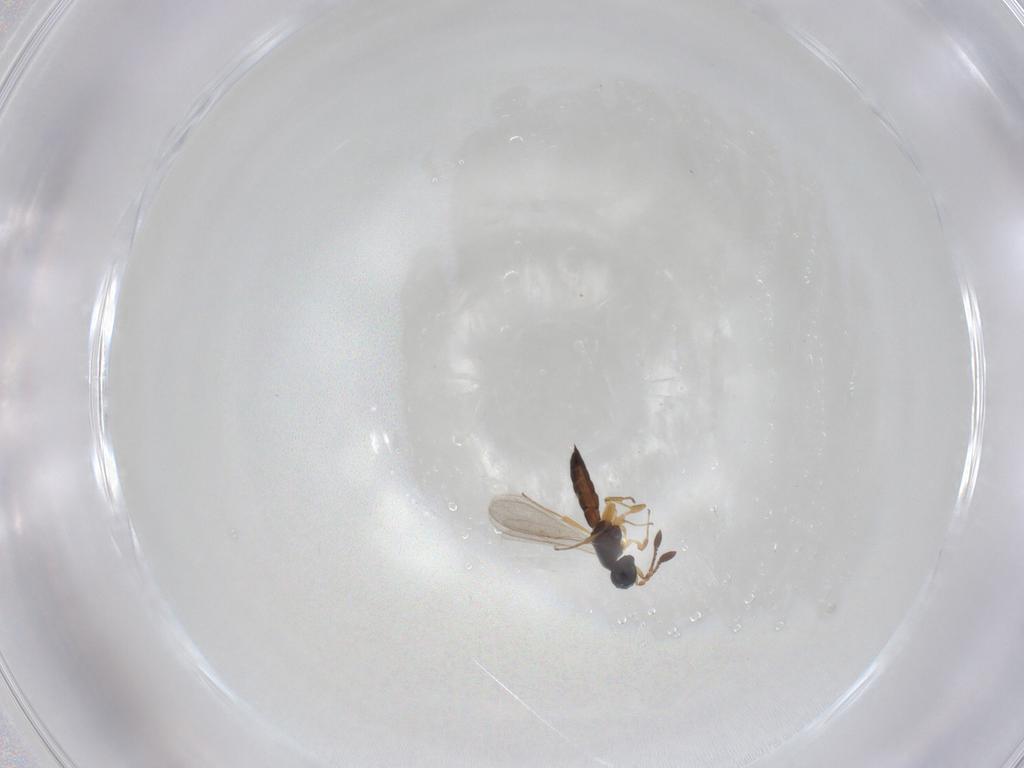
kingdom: Animalia
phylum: Arthropoda
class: Insecta
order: Hymenoptera
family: Scelionidae
